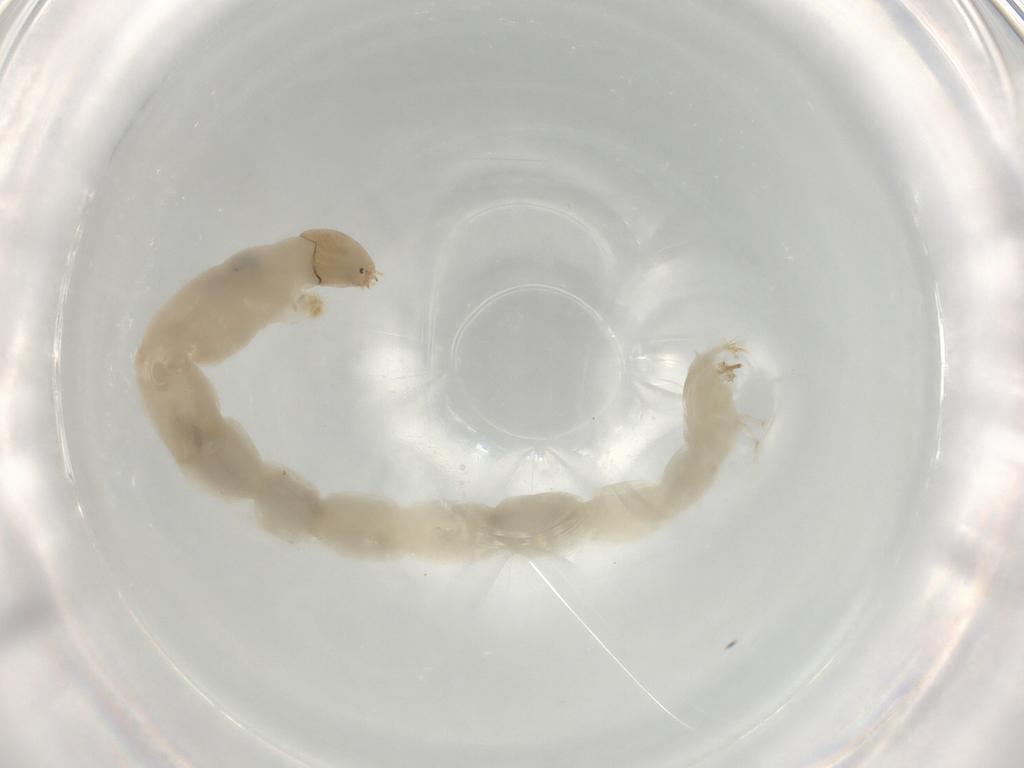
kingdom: Animalia
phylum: Arthropoda
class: Insecta
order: Diptera
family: Chironomidae
